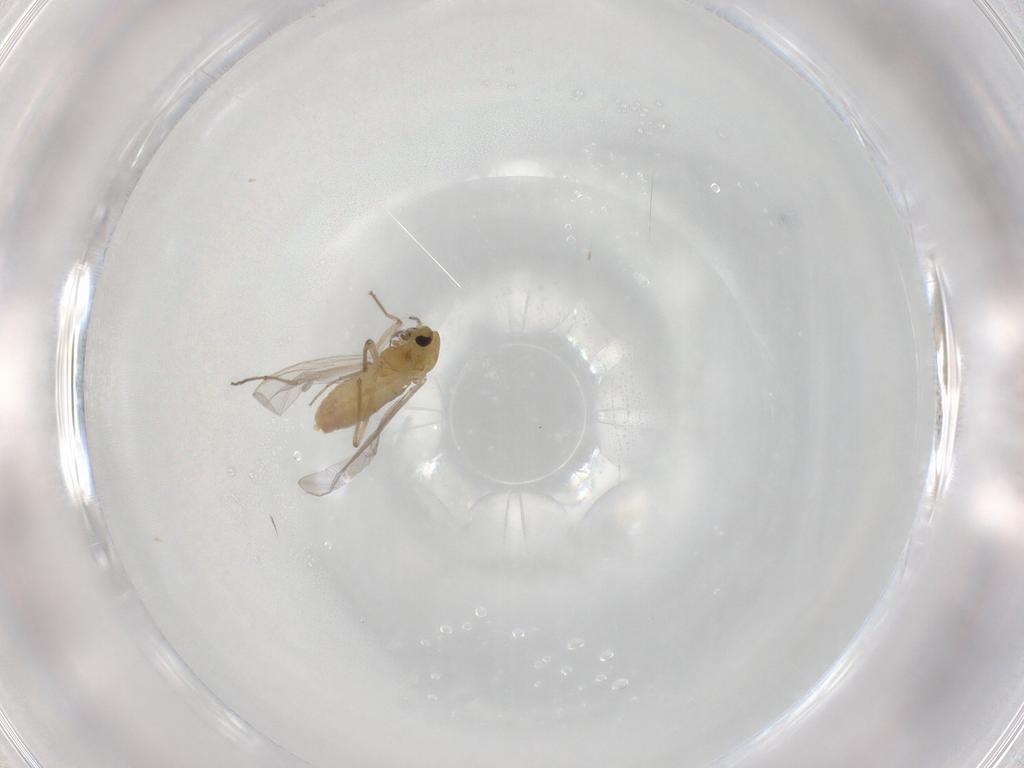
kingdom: Animalia
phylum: Arthropoda
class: Insecta
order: Diptera
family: Chironomidae
